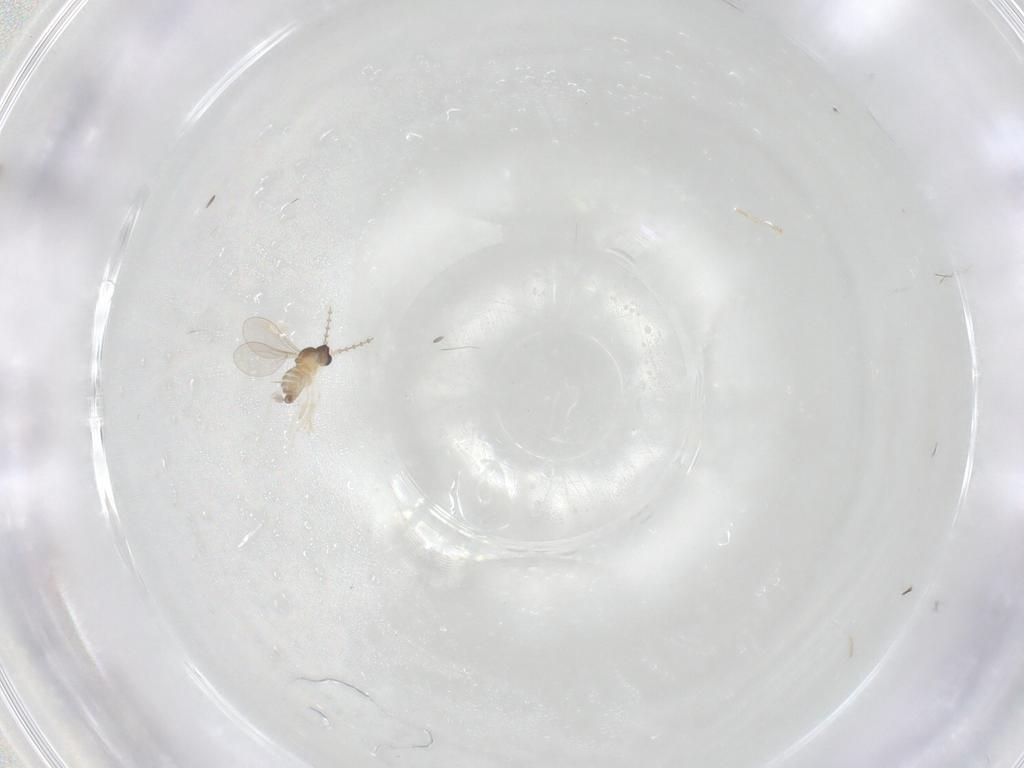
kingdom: Animalia
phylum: Arthropoda
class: Insecta
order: Diptera
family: Cecidomyiidae
